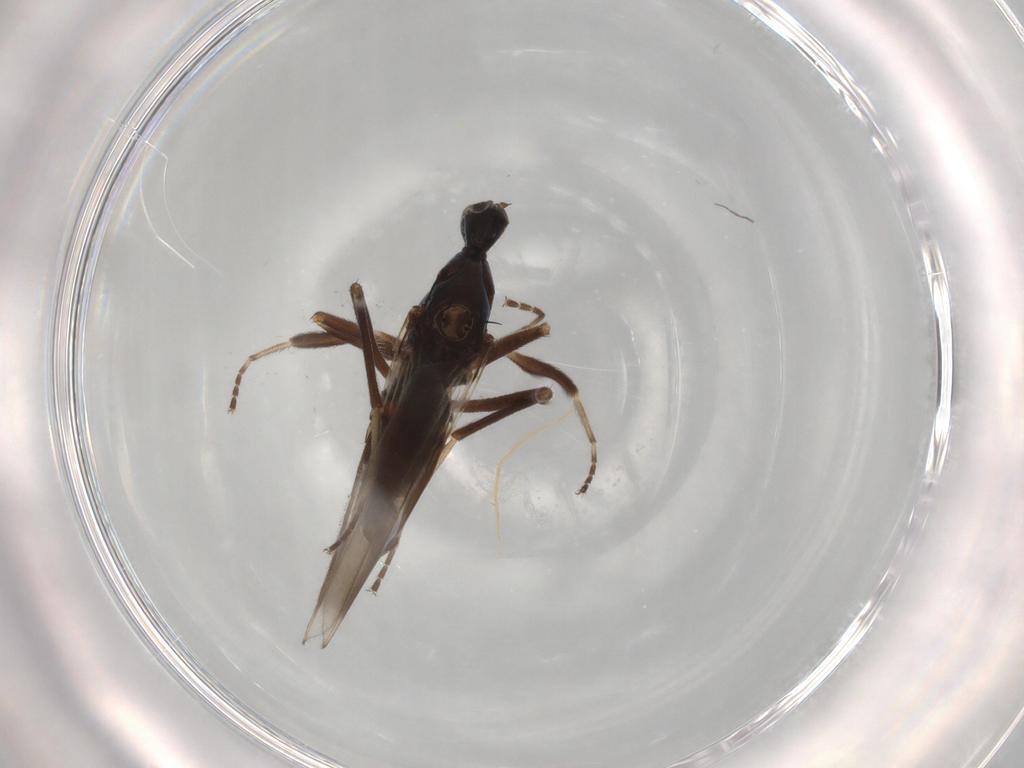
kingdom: Animalia
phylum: Arthropoda
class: Insecta
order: Diptera
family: Hybotidae
